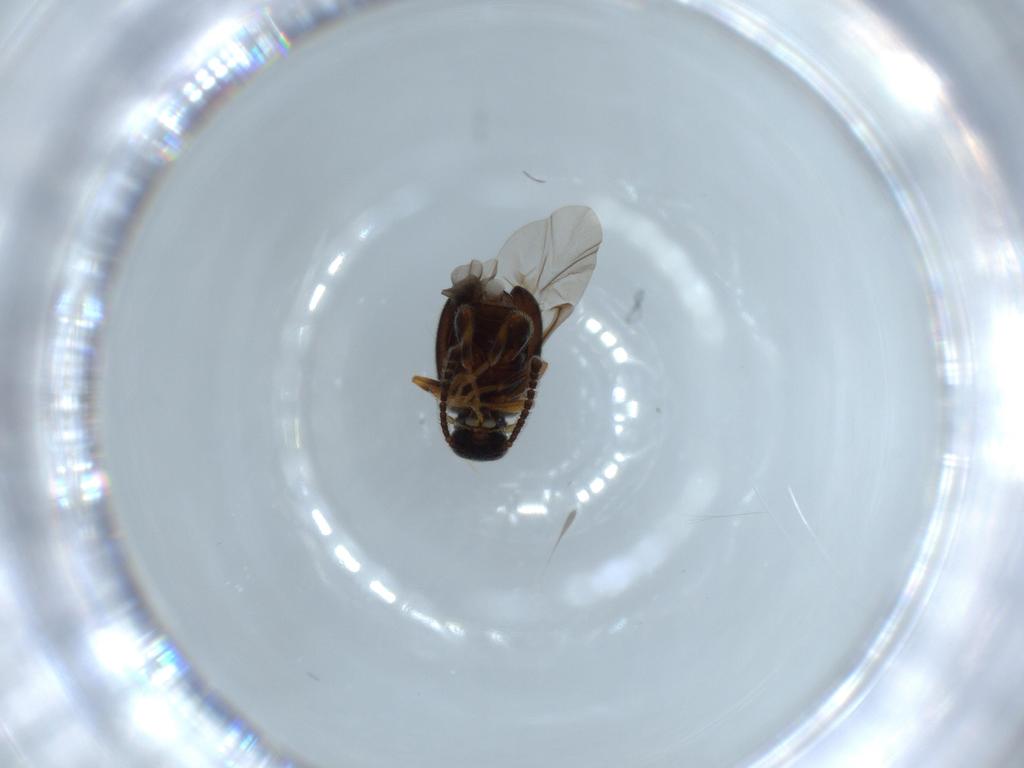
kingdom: Animalia
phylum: Arthropoda
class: Insecta
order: Coleoptera
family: Aderidae
